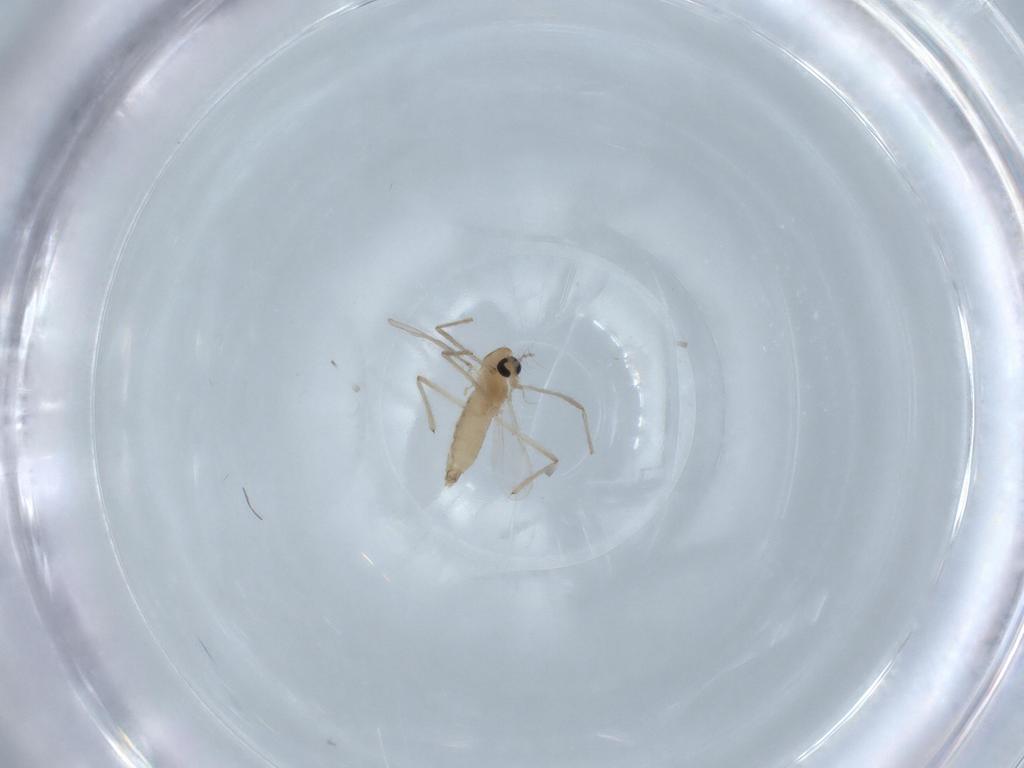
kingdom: Animalia
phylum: Arthropoda
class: Insecta
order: Diptera
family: Chironomidae
